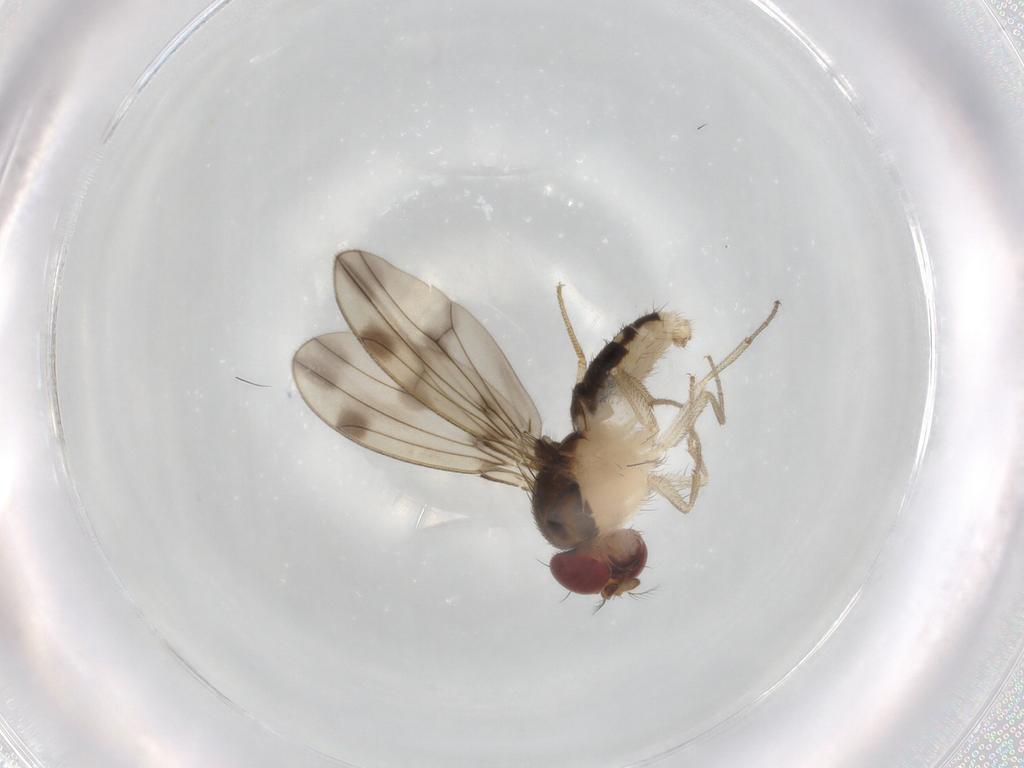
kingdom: Animalia
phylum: Arthropoda
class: Insecta
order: Diptera
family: Drosophilidae
